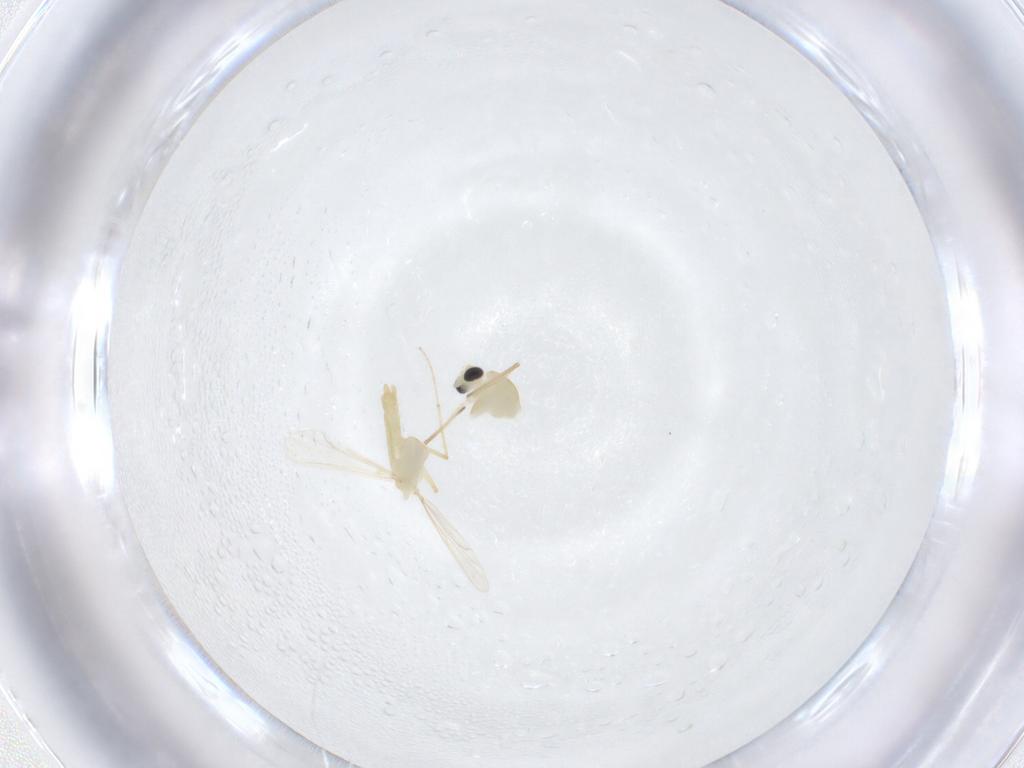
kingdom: Animalia
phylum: Arthropoda
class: Insecta
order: Diptera
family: Chironomidae
